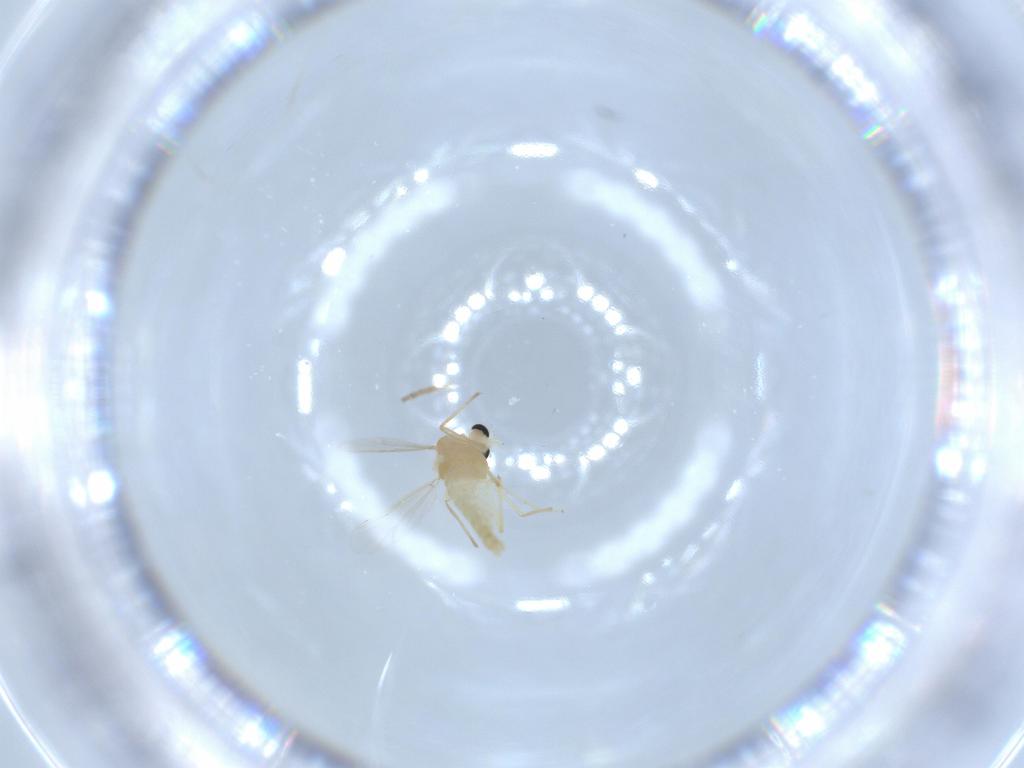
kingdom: Animalia
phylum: Arthropoda
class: Insecta
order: Diptera
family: Chironomidae
